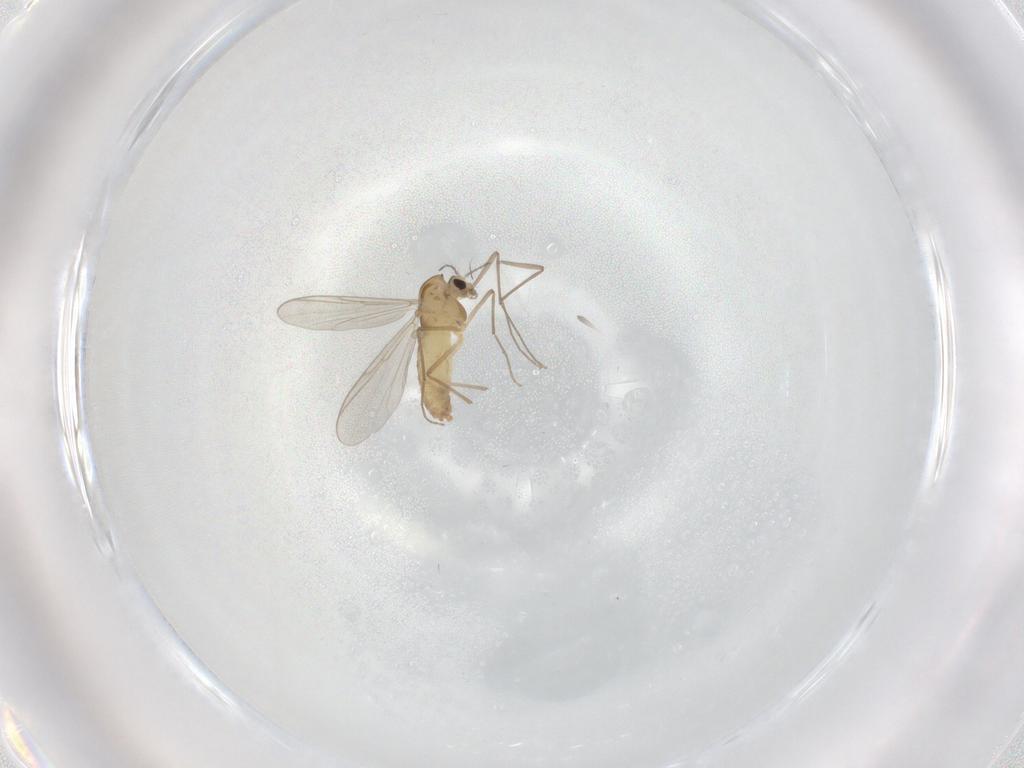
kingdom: Animalia
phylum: Arthropoda
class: Insecta
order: Diptera
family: Chironomidae
